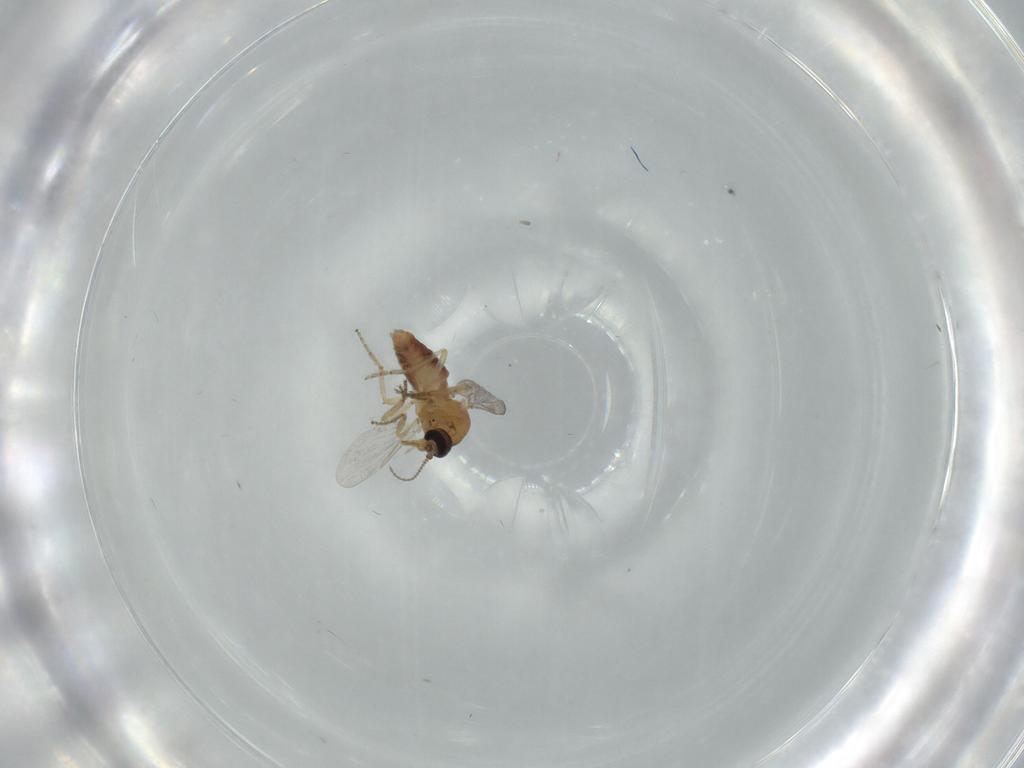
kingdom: Animalia
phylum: Arthropoda
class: Insecta
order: Diptera
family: Ceratopogonidae
